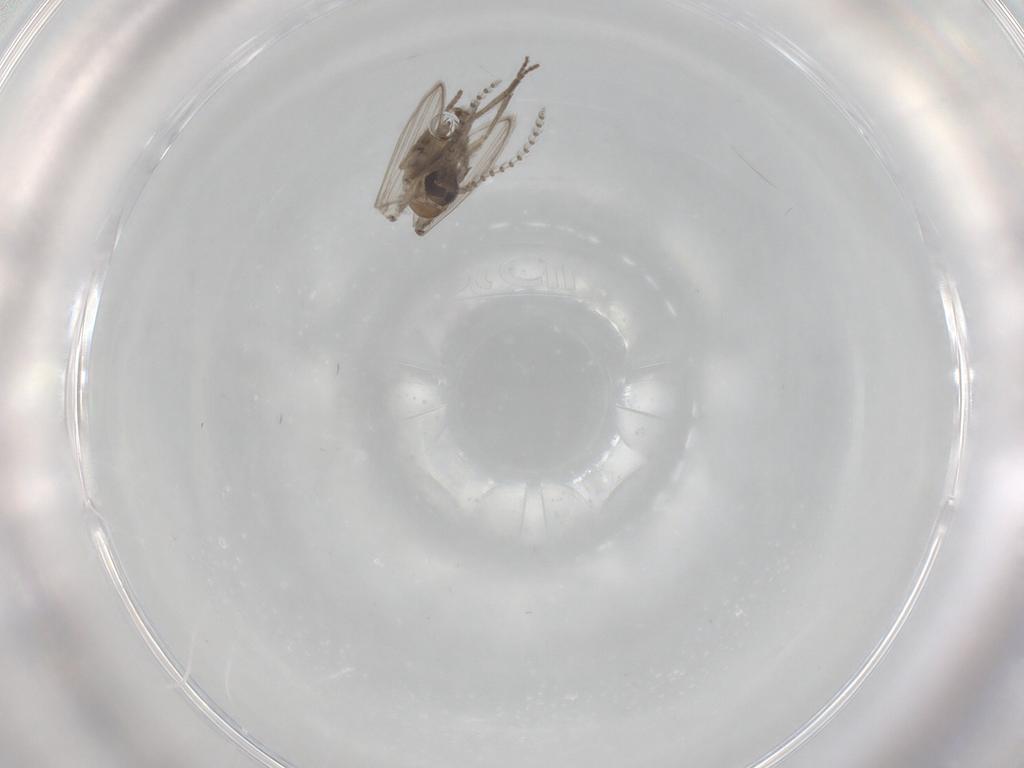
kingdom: Animalia
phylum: Arthropoda
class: Insecta
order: Diptera
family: Psychodidae
